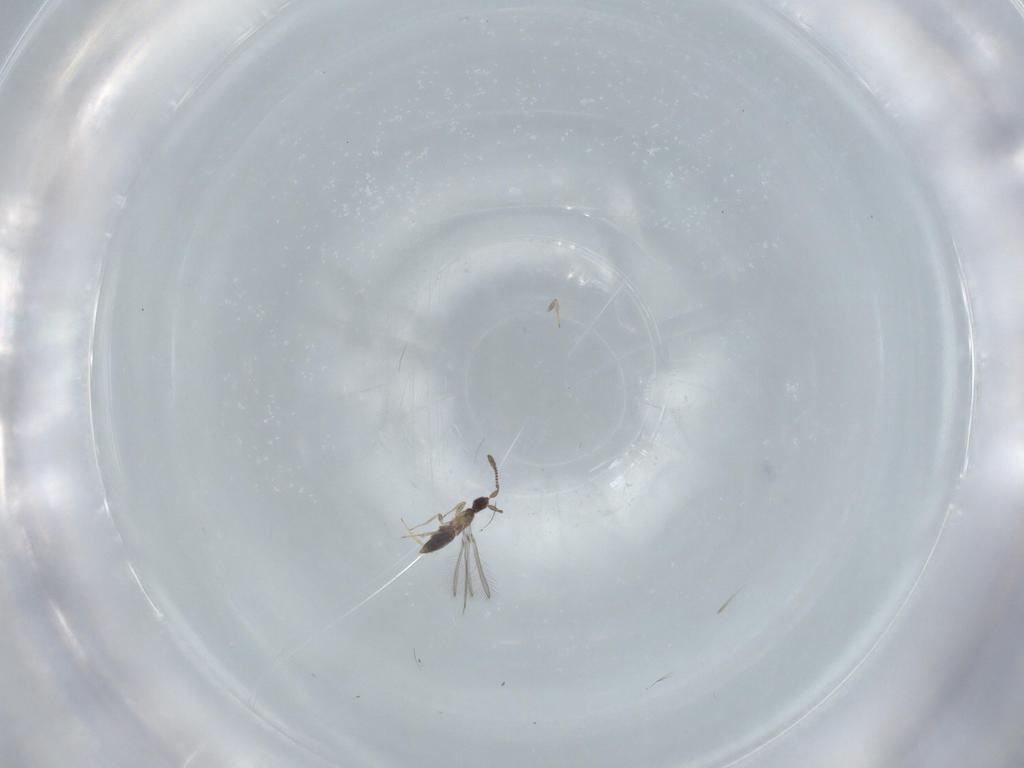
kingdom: Animalia
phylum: Arthropoda
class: Insecta
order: Hymenoptera
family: Mymaridae
